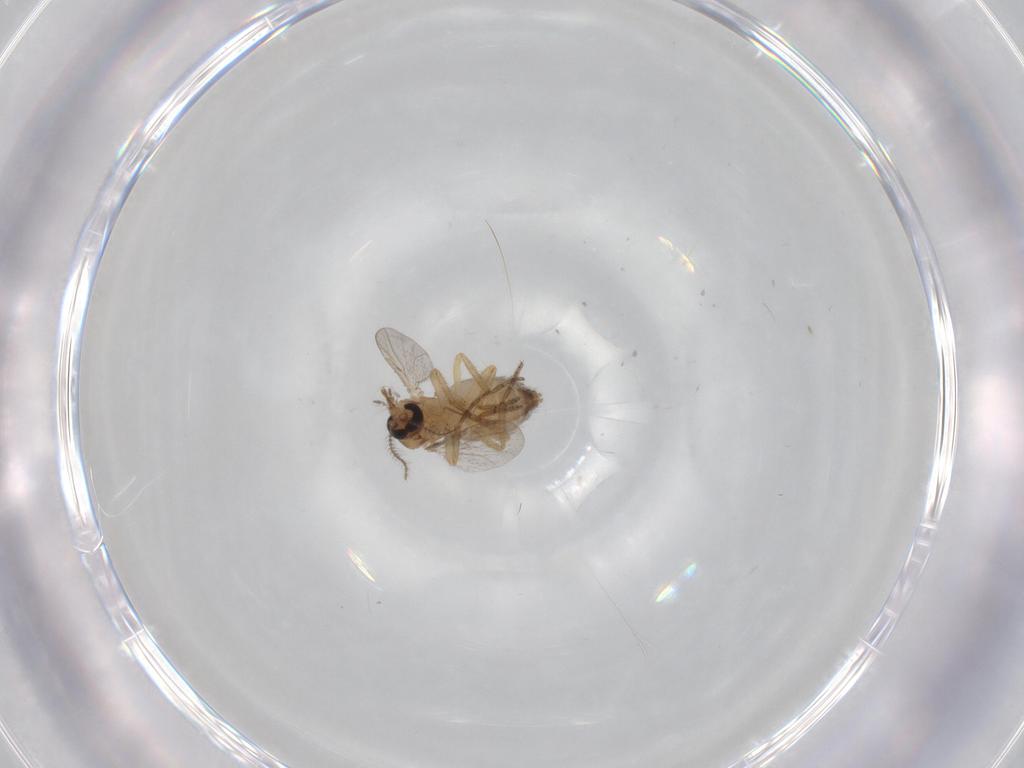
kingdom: Animalia
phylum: Arthropoda
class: Insecta
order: Diptera
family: Ceratopogonidae
